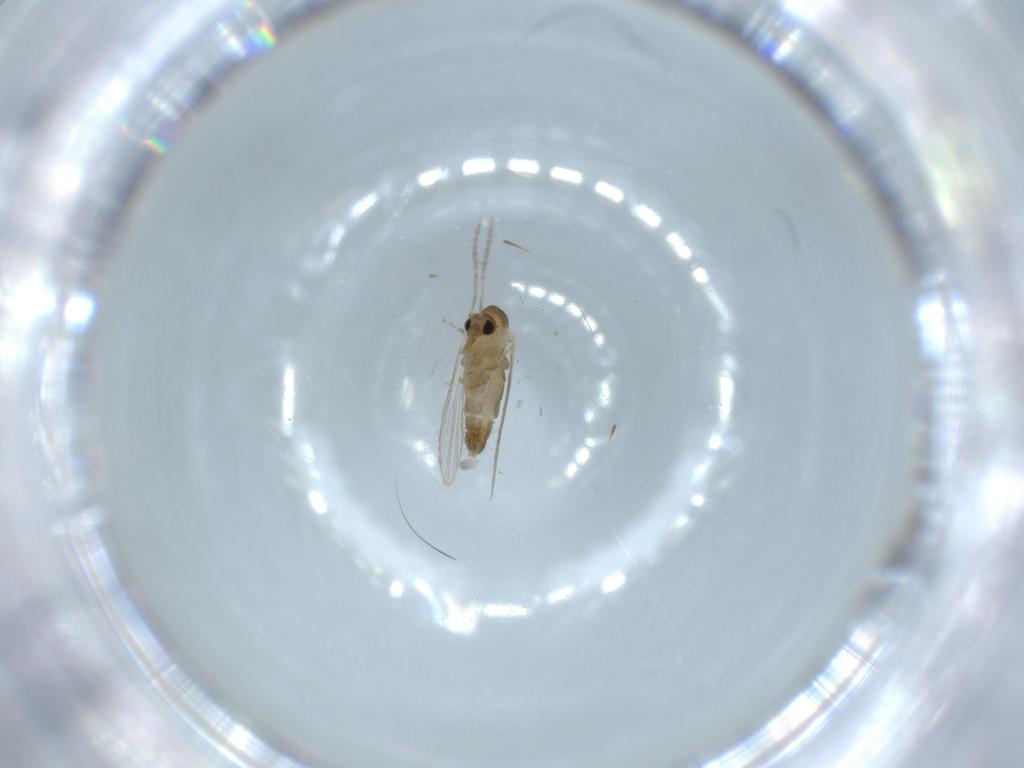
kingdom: Animalia
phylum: Arthropoda
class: Insecta
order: Diptera
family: Psychodidae
